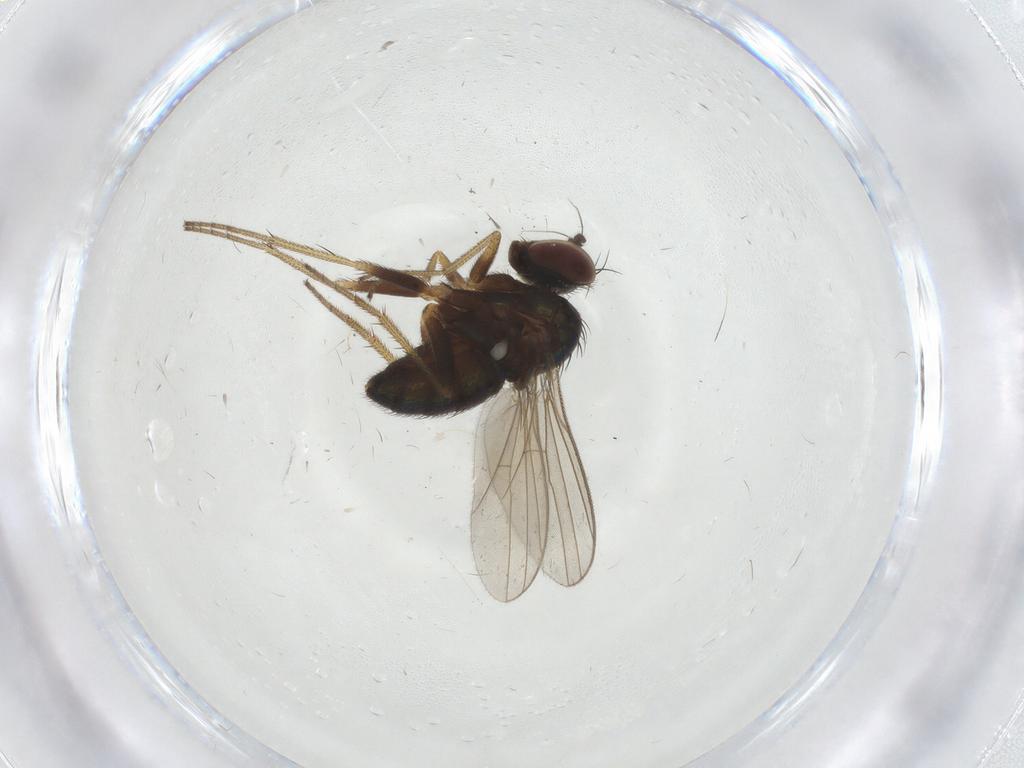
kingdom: Animalia
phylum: Arthropoda
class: Insecta
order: Diptera
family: Dolichopodidae
